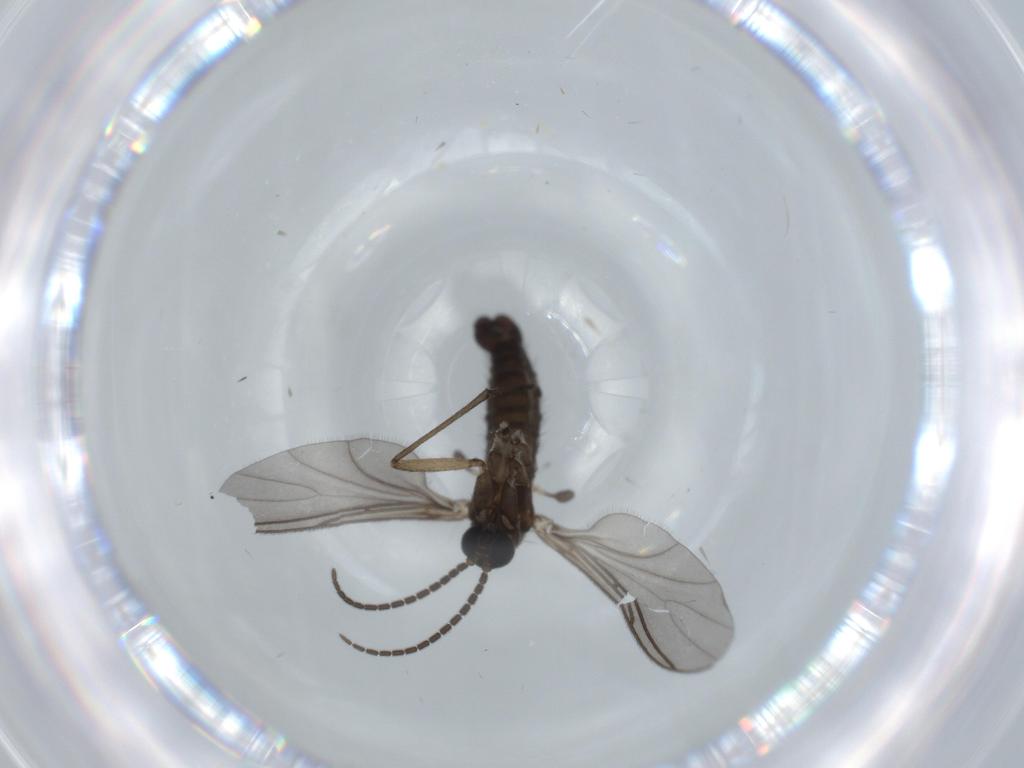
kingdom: Animalia
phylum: Arthropoda
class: Insecta
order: Diptera
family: Sciaridae
